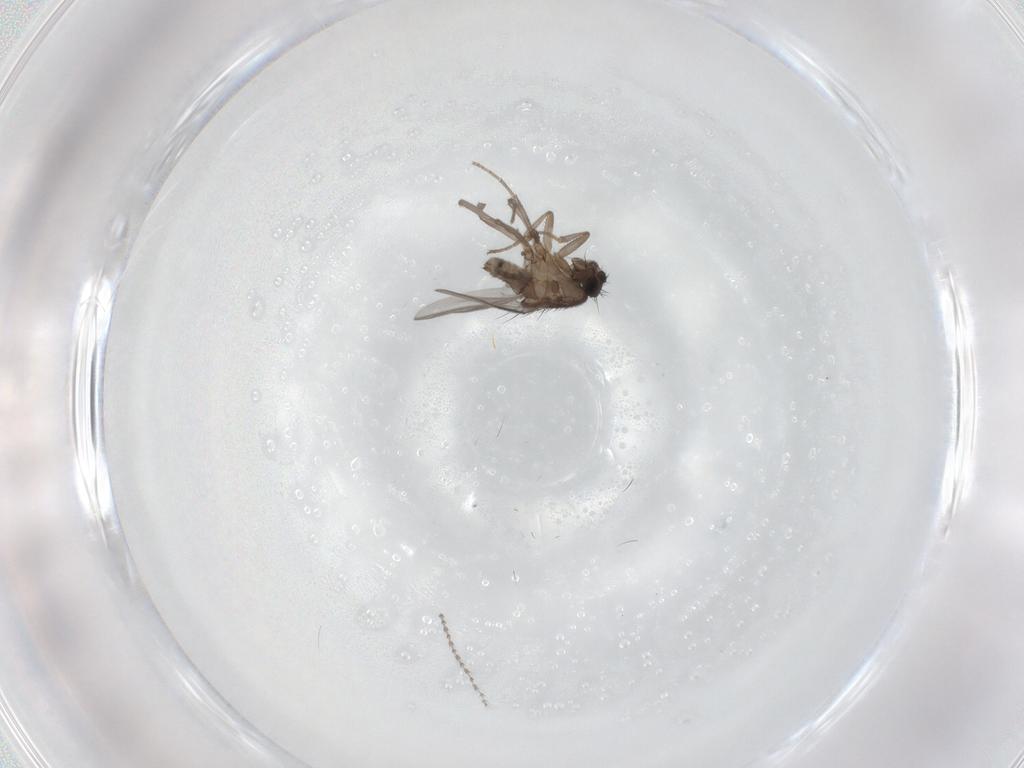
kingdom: Animalia
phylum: Arthropoda
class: Insecta
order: Diptera
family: Sphaeroceridae
